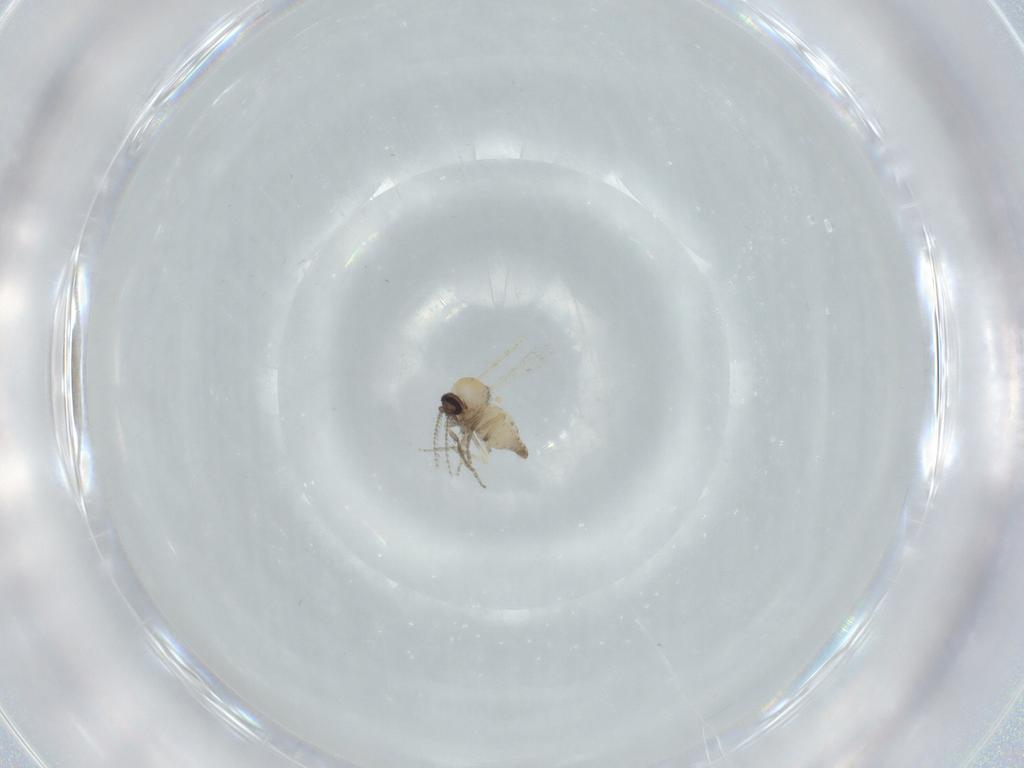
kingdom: Animalia
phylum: Arthropoda
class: Insecta
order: Diptera
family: Ceratopogonidae
